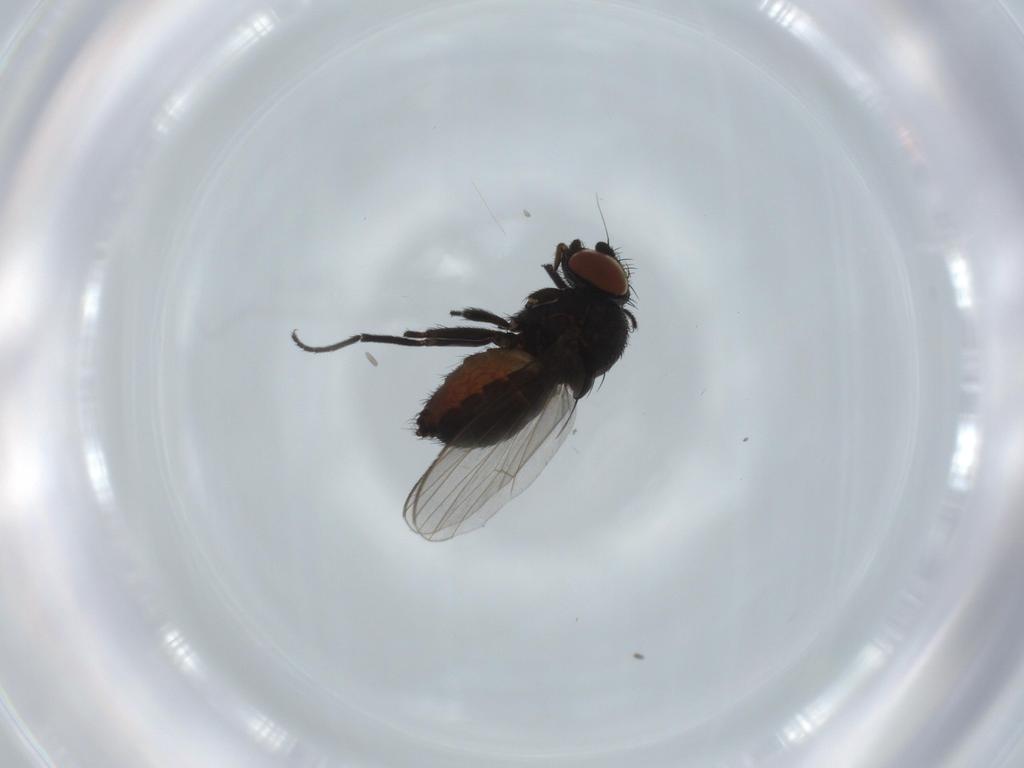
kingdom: Animalia
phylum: Arthropoda
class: Insecta
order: Diptera
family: Milichiidae
